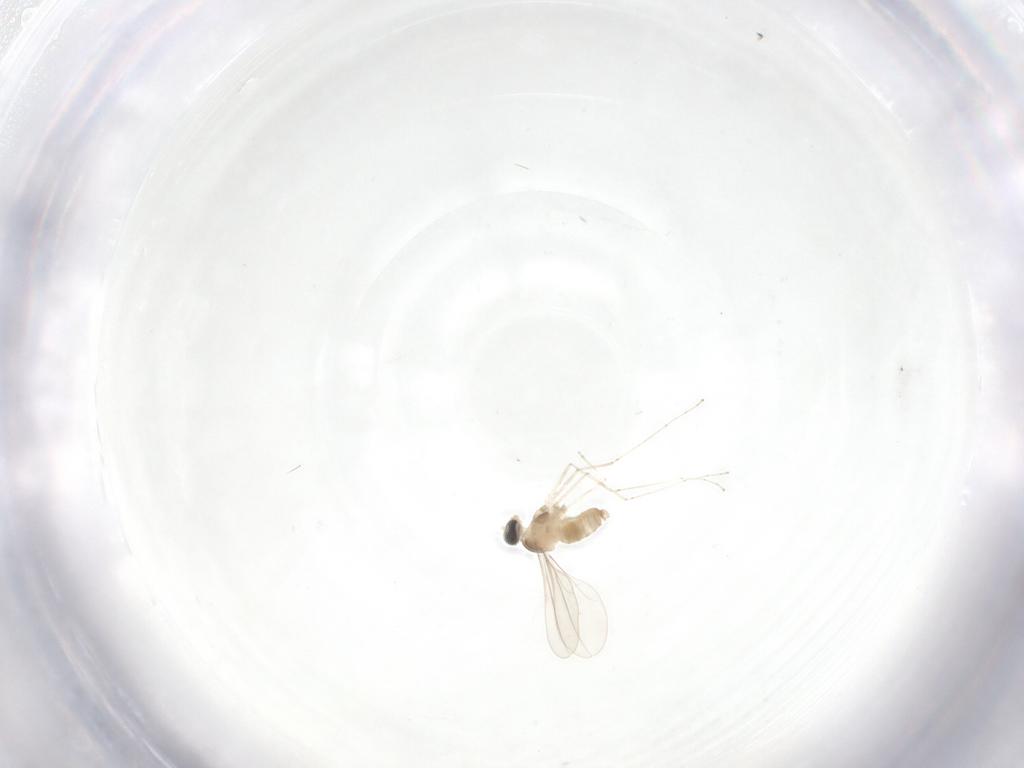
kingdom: Animalia
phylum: Arthropoda
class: Insecta
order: Diptera
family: Cecidomyiidae
